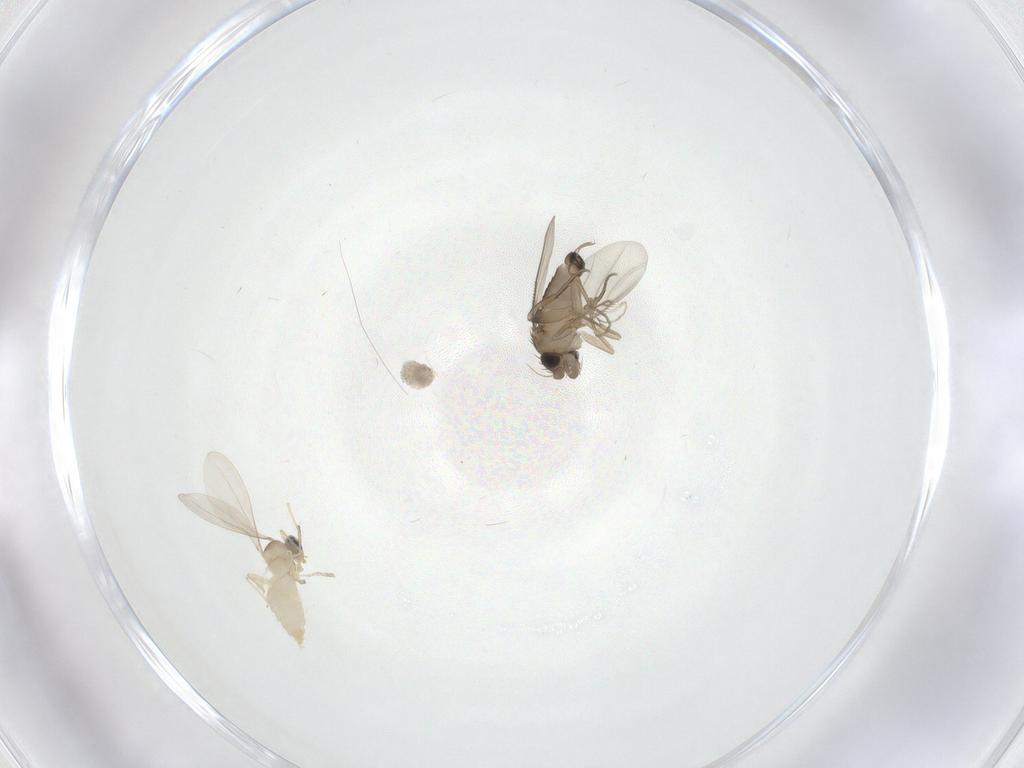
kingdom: Animalia
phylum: Arthropoda
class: Insecta
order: Diptera
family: Cecidomyiidae
